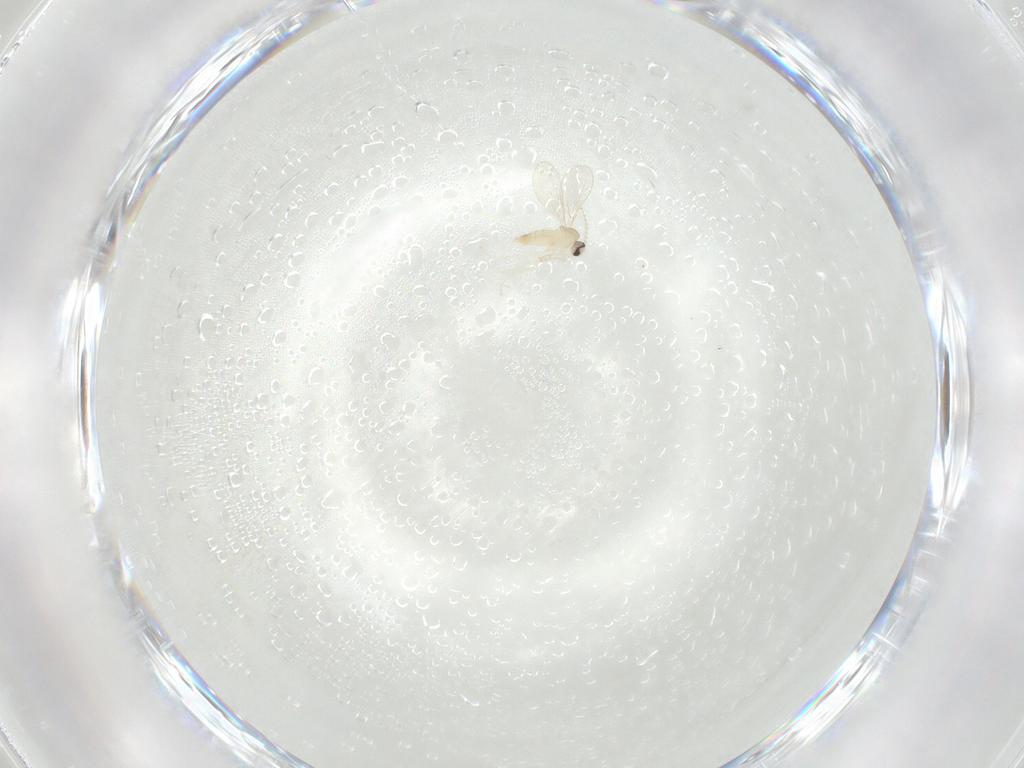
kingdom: Animalia
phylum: Arthropoda
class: Insecta
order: Diptera
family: Cecidomyiidae
